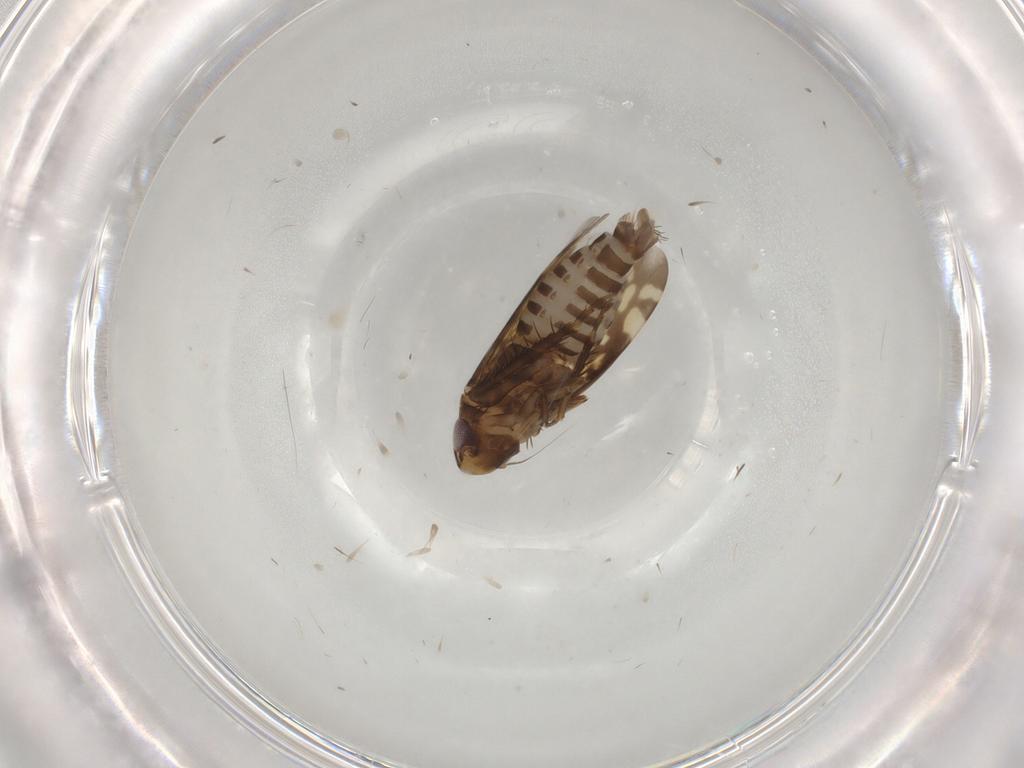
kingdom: Animalia
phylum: Arthropoda
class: Insecta
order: Hemiptera
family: Cicadellidae
